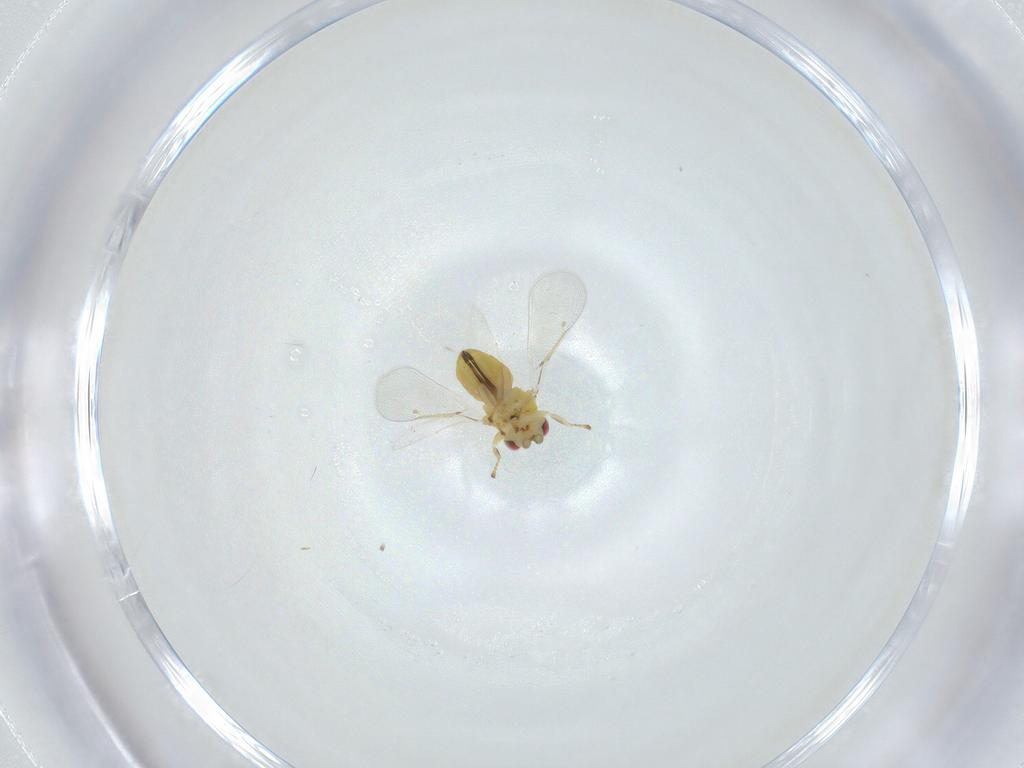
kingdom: Animalia
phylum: Arthropoda
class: Insecta
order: Hymenoptera
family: Eulophidae
